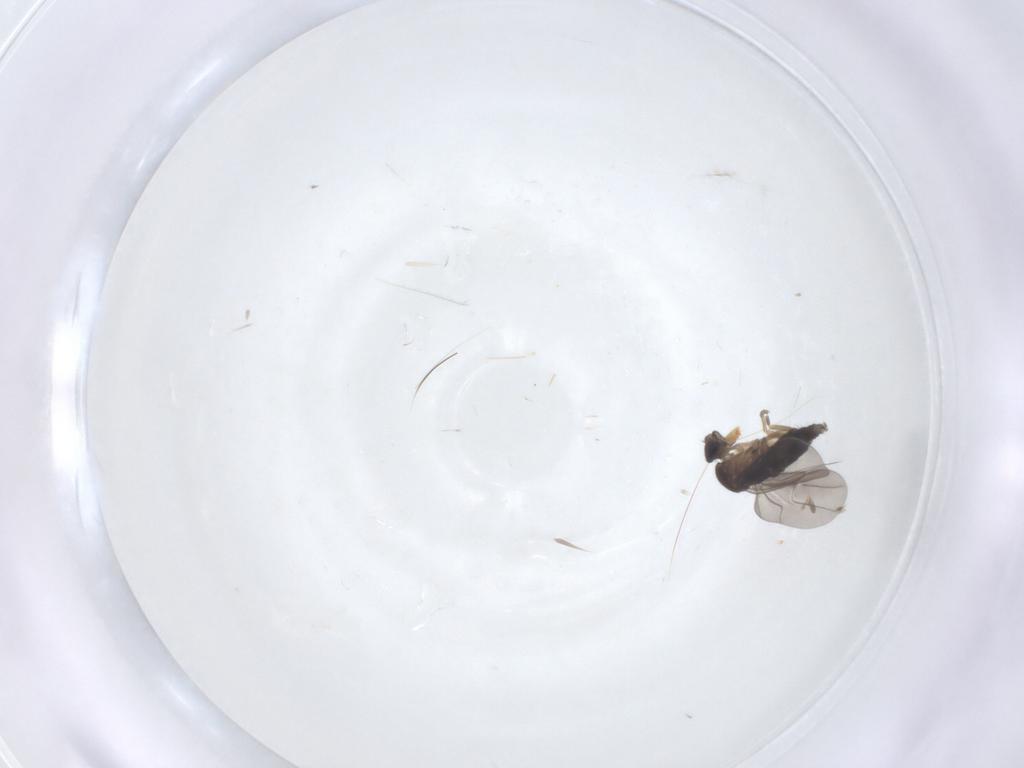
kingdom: Animalia
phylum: Arthropoda
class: Insecta
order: Diptera
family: Phoridae
